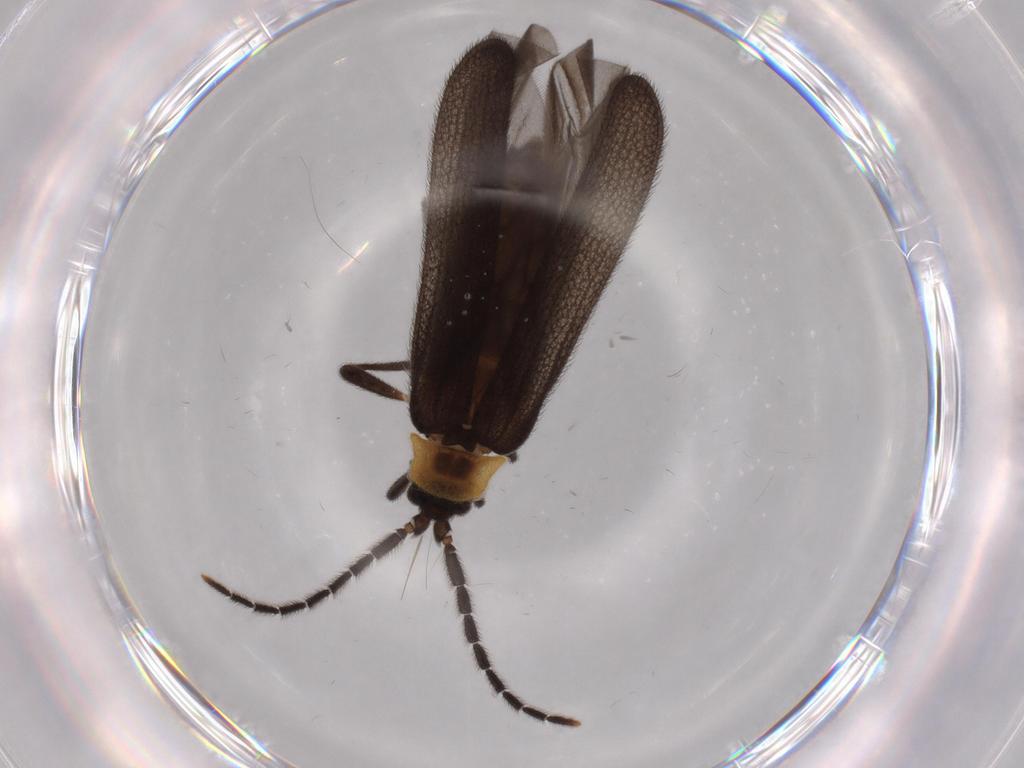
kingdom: Animalia
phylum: Arthropoda
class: Insecta
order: Coleoptera
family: Lycidae
